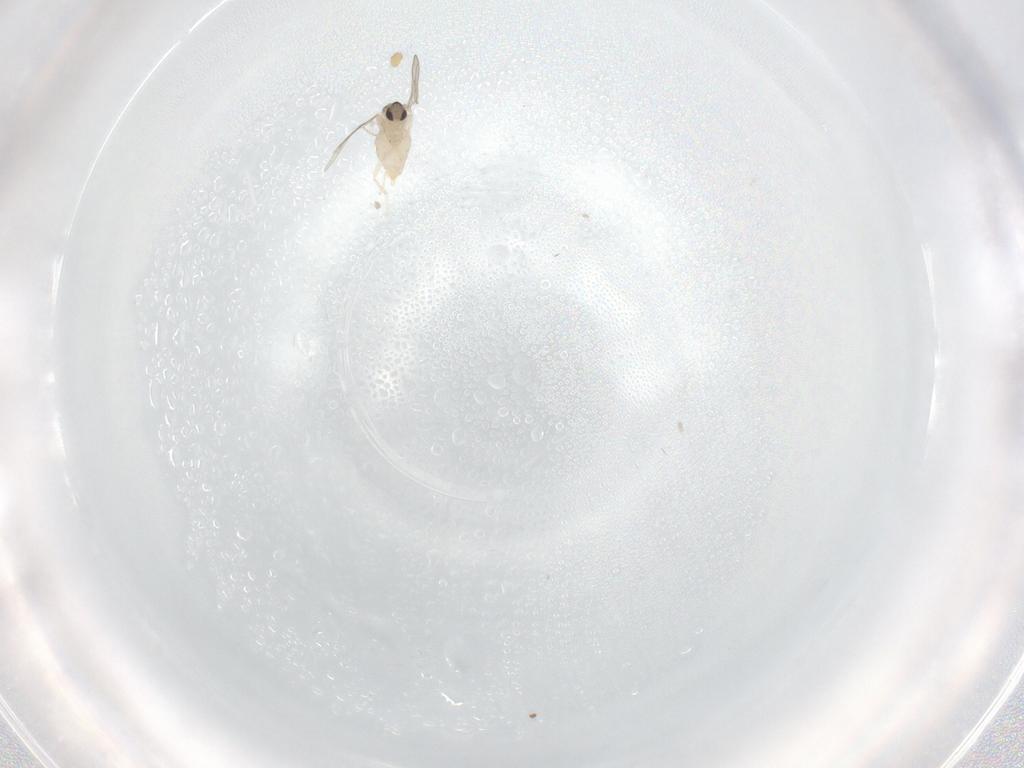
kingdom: Animalia
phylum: Arthropoda
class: Insecta
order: Diptera
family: Cecidomyiidae
